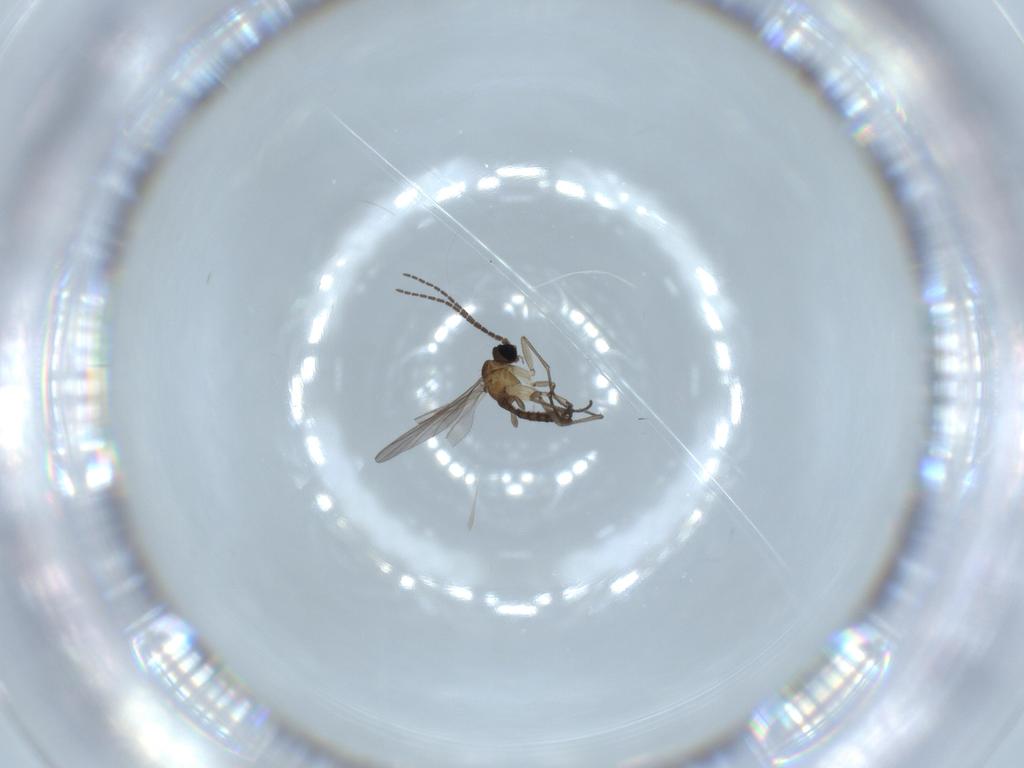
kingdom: Animalia
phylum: Arthropoda
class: Insecta
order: Diptera
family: Sciaridae
